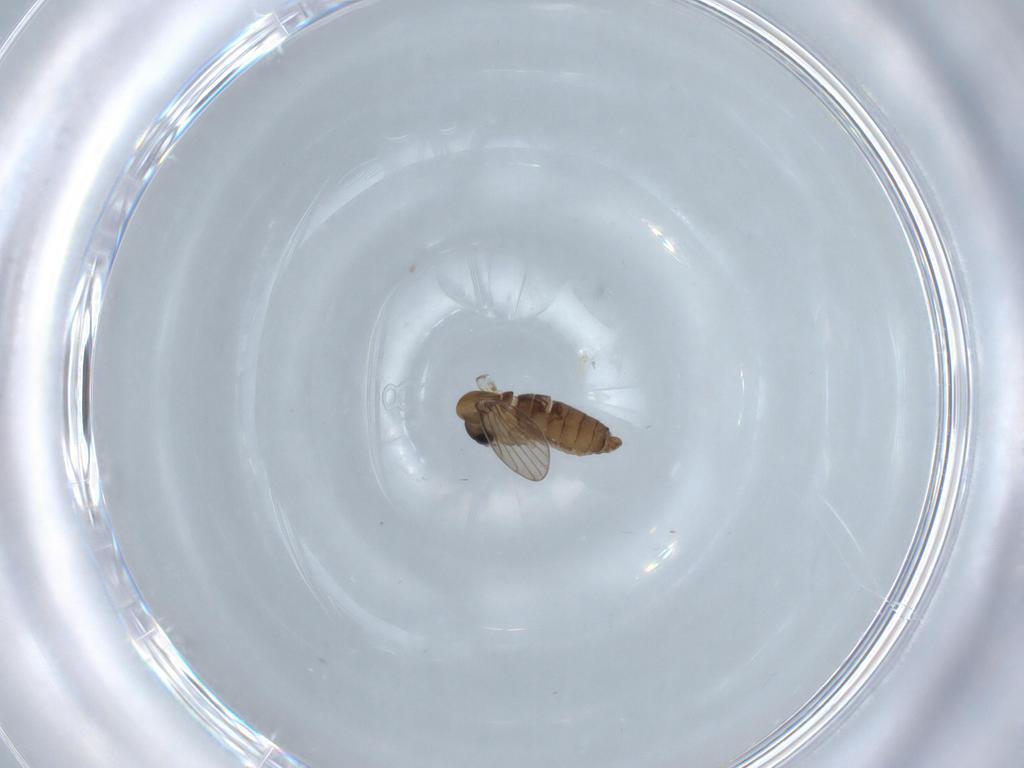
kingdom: Animalia
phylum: Arthropoda
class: Insecta
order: Diptera
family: Psychodidae
